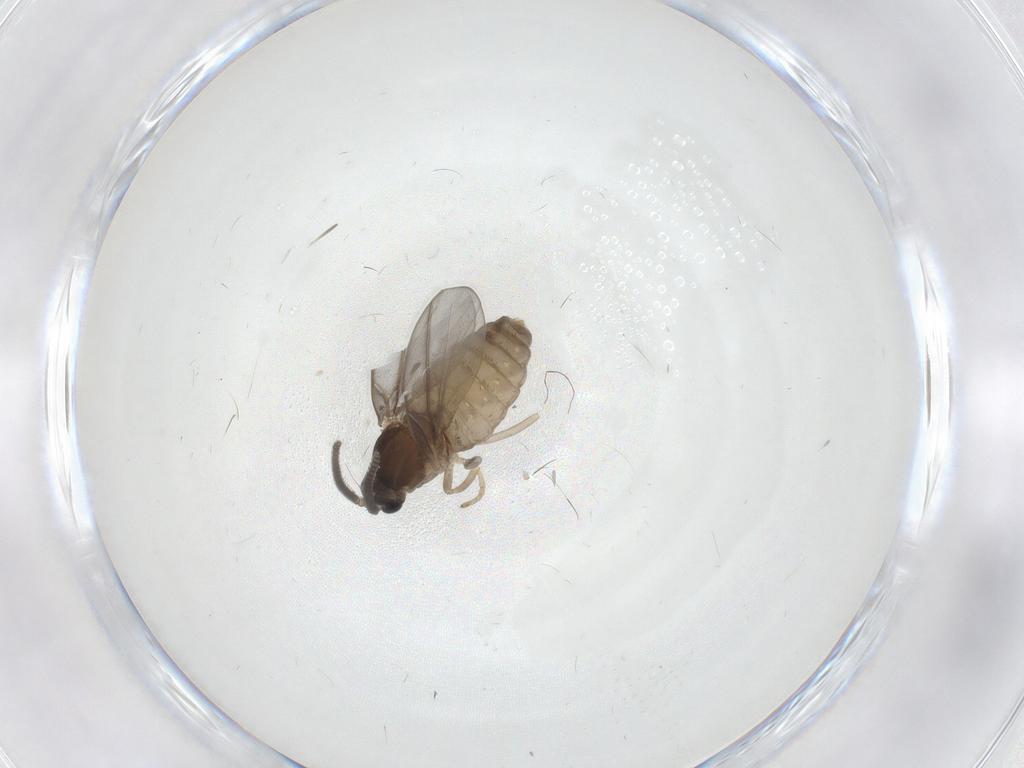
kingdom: Animalia
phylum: Arthropoda
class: Insecta
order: Diptera
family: Cecidomyiidae
